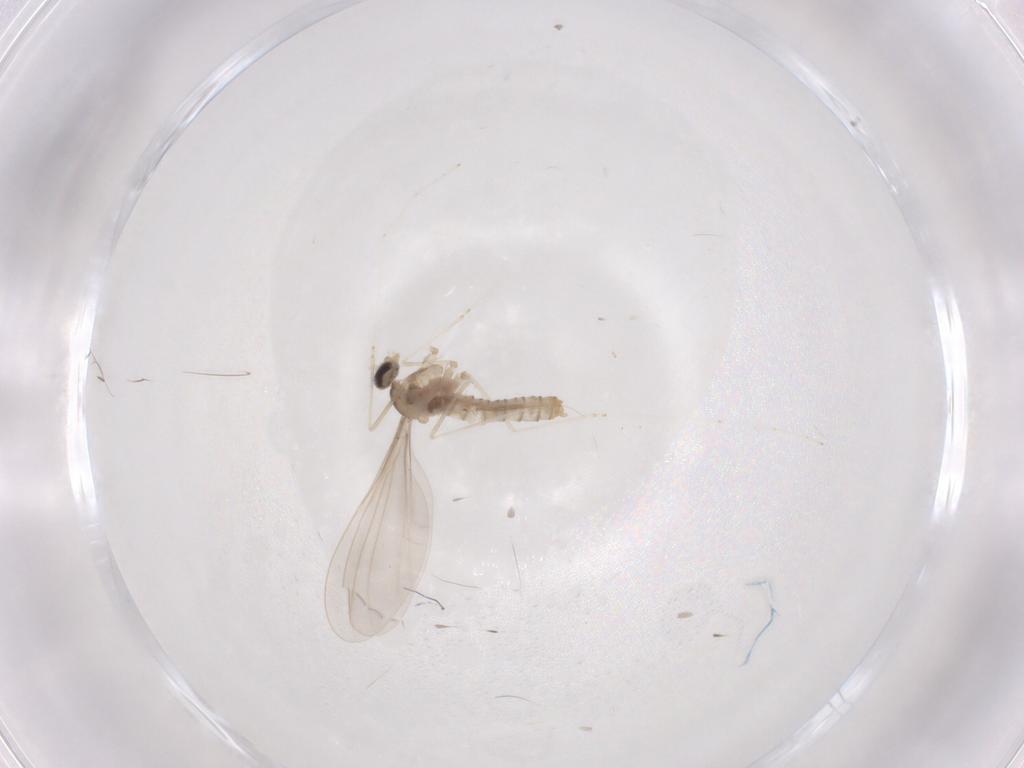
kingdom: Animalia
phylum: Arthropoda
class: Insecta
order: Diptera
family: Cecidomyiidae
